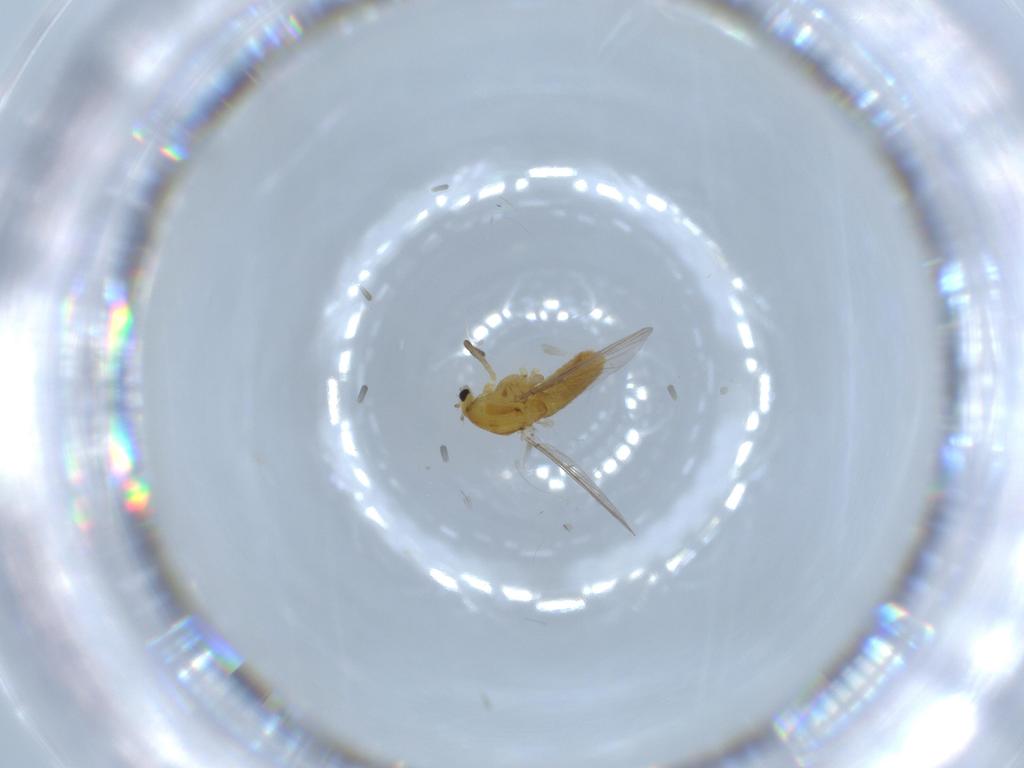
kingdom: Animalia
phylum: Arthropoda
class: Insecta
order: Diptera
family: Chironomidae
